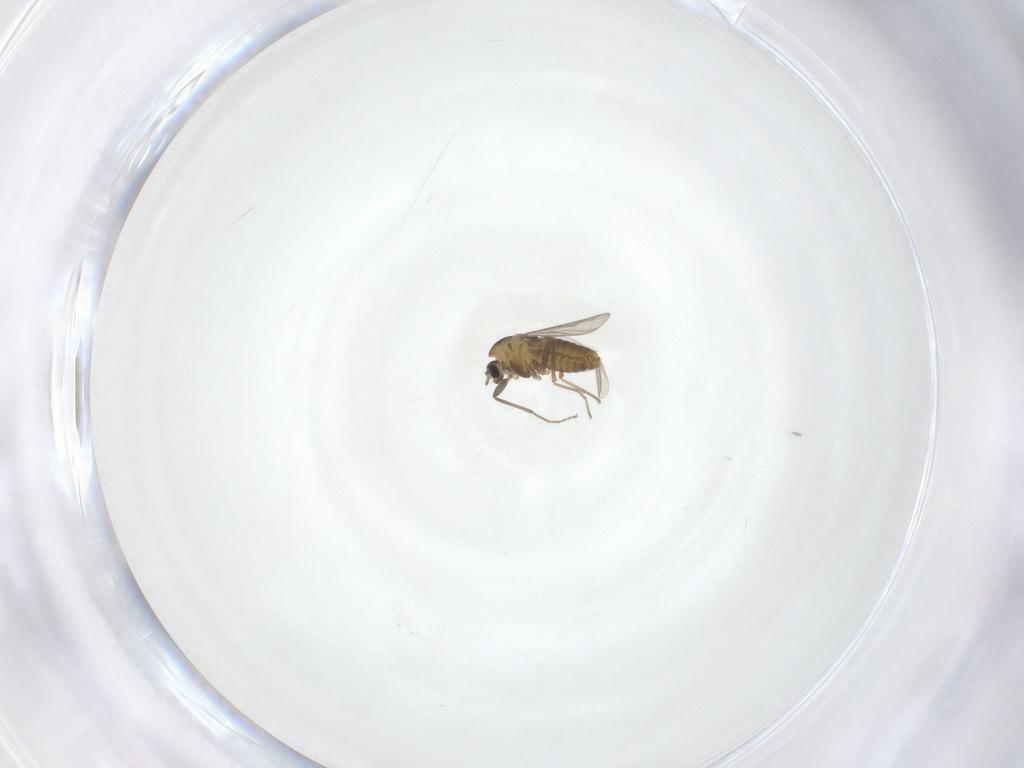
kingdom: Animalia
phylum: Arthropoda
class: Insecta
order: Diptera
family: Chironomidae
